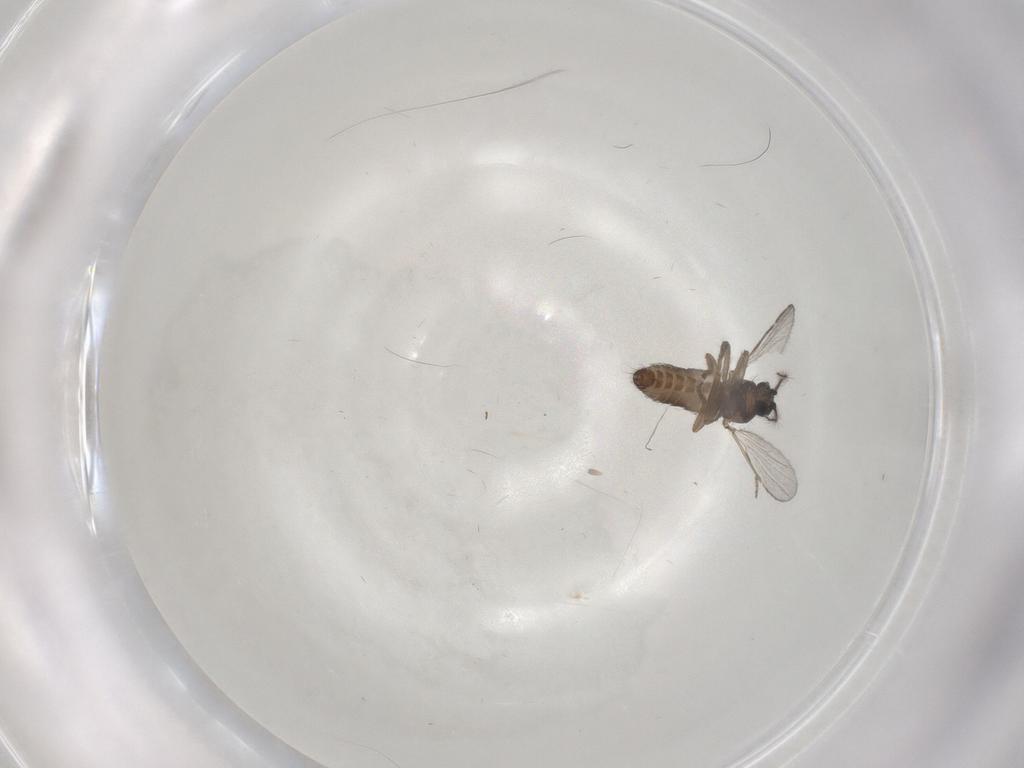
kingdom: Animalia
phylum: Arthropoda
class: Insecta
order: Diptera
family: Ceratopogonidae
